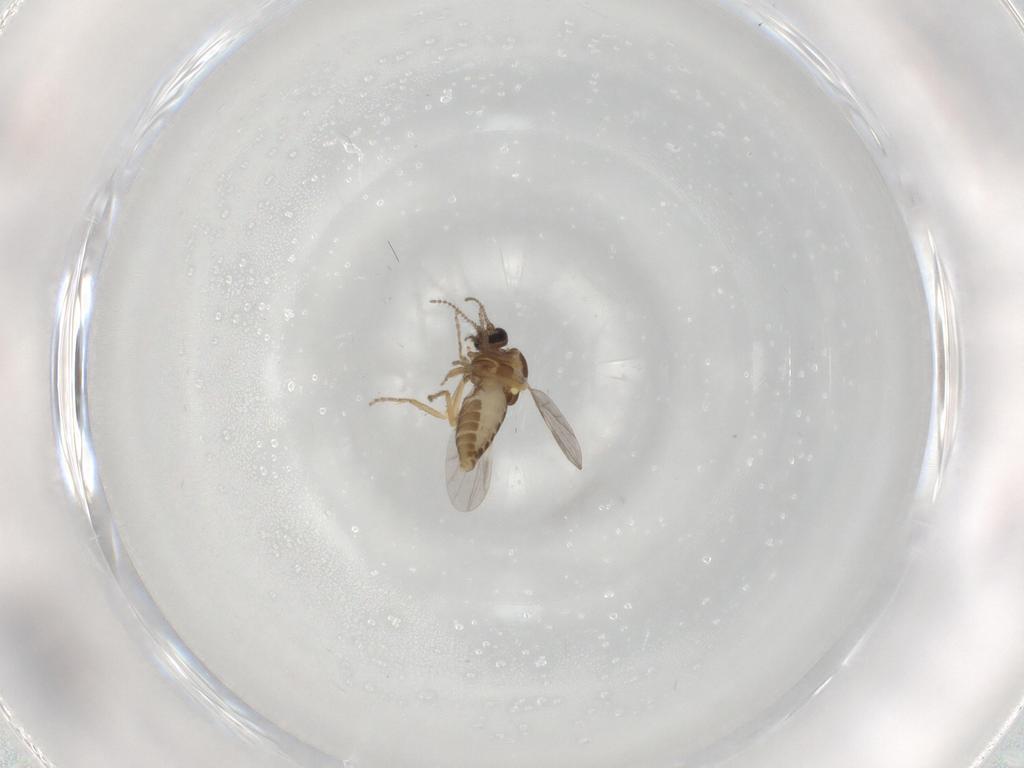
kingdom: Animalia
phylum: Arthropoda
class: Insecta
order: Diptera
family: Bibionidae
